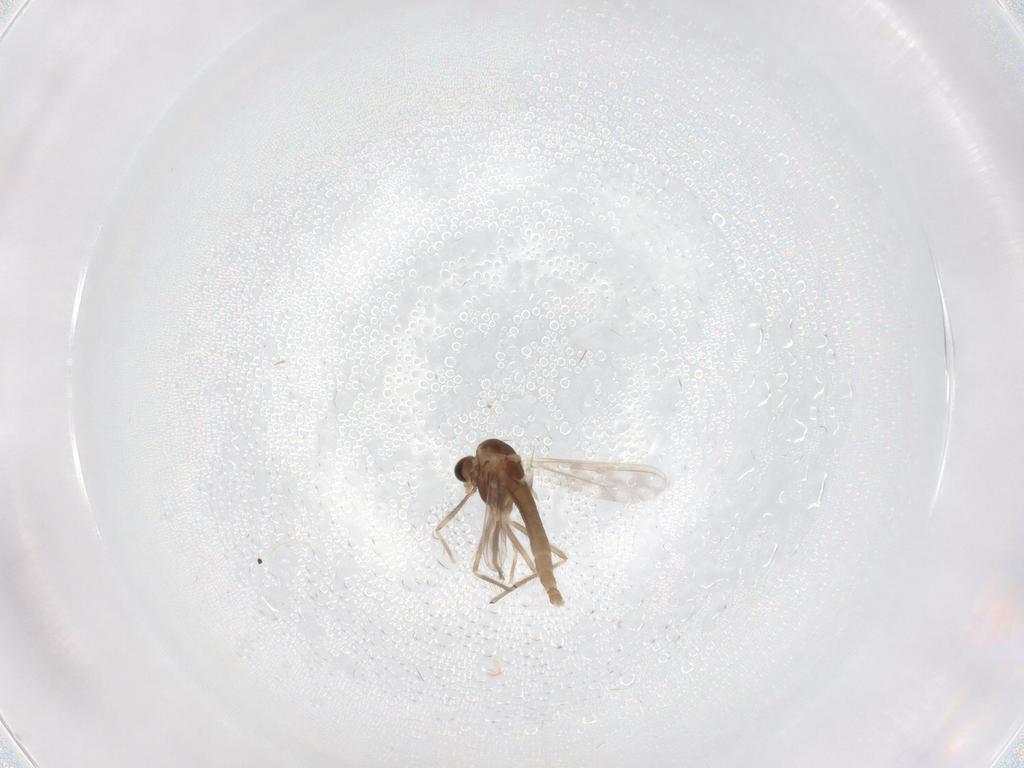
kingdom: Animalia
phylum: Arthropoda
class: Insecta
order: Diptera
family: Chironomidae
